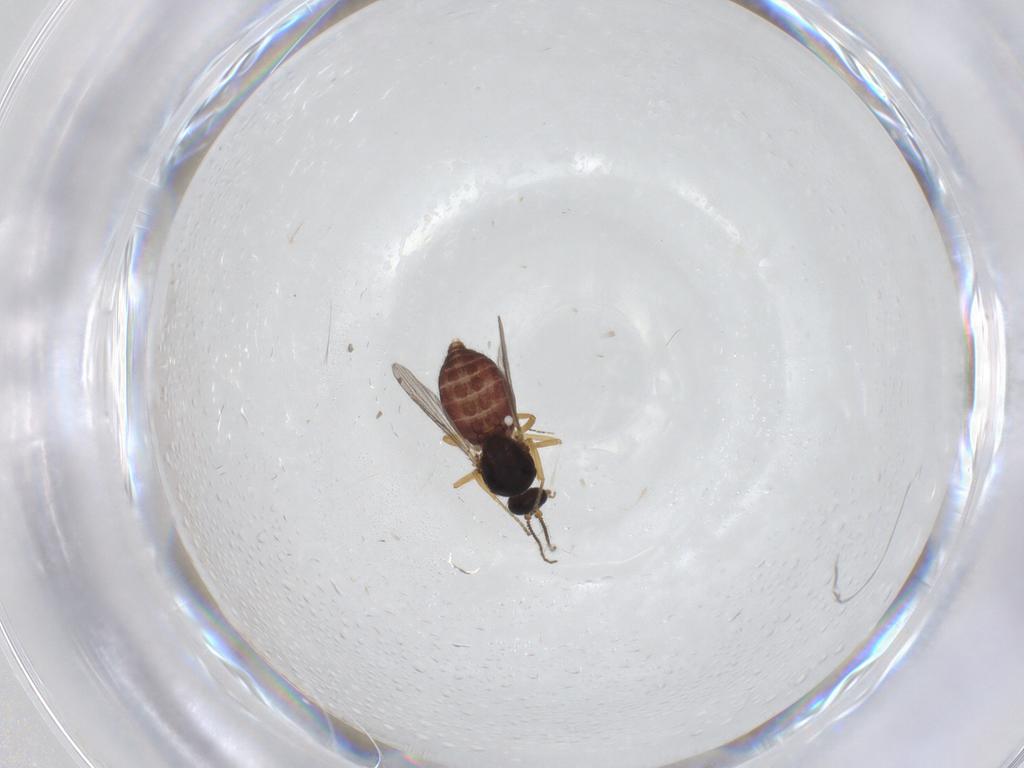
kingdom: Animalia
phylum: Arthropoda
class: Insecta
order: Diptera
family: Ceratopogonidae
